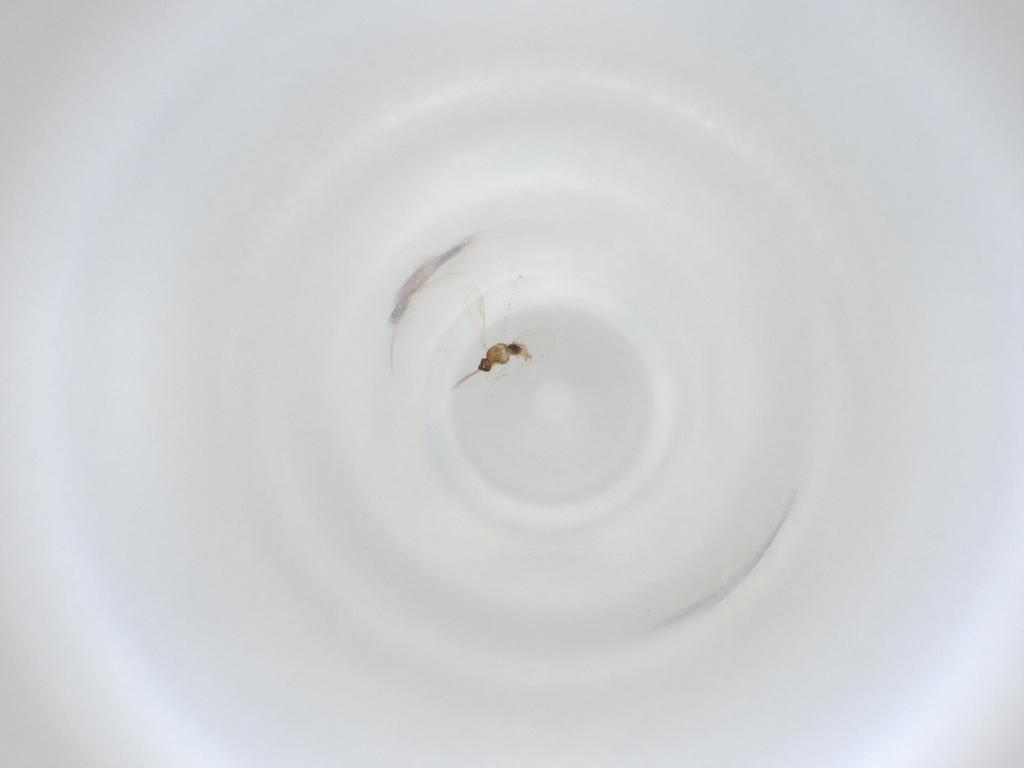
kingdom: Animalia
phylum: Arthropoda
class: Insecta
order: Diptera
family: Cecidomyiidae
